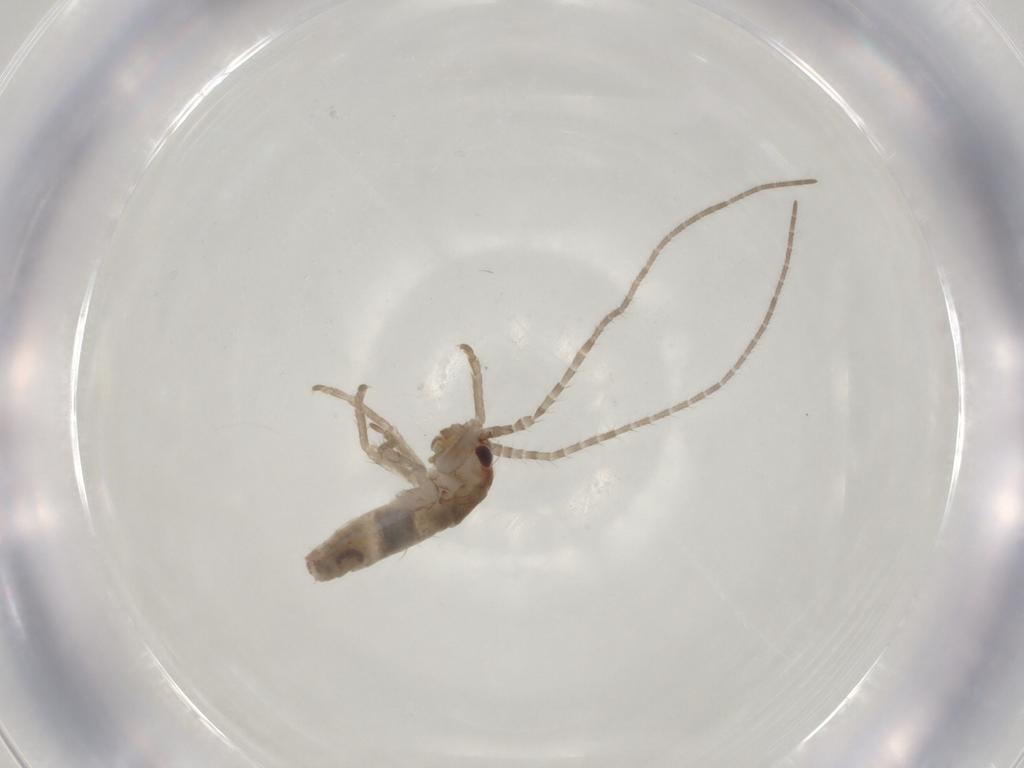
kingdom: Animalia
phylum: Arthropoda
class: Insecta
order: Orthoptera
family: Mogoplistidae
